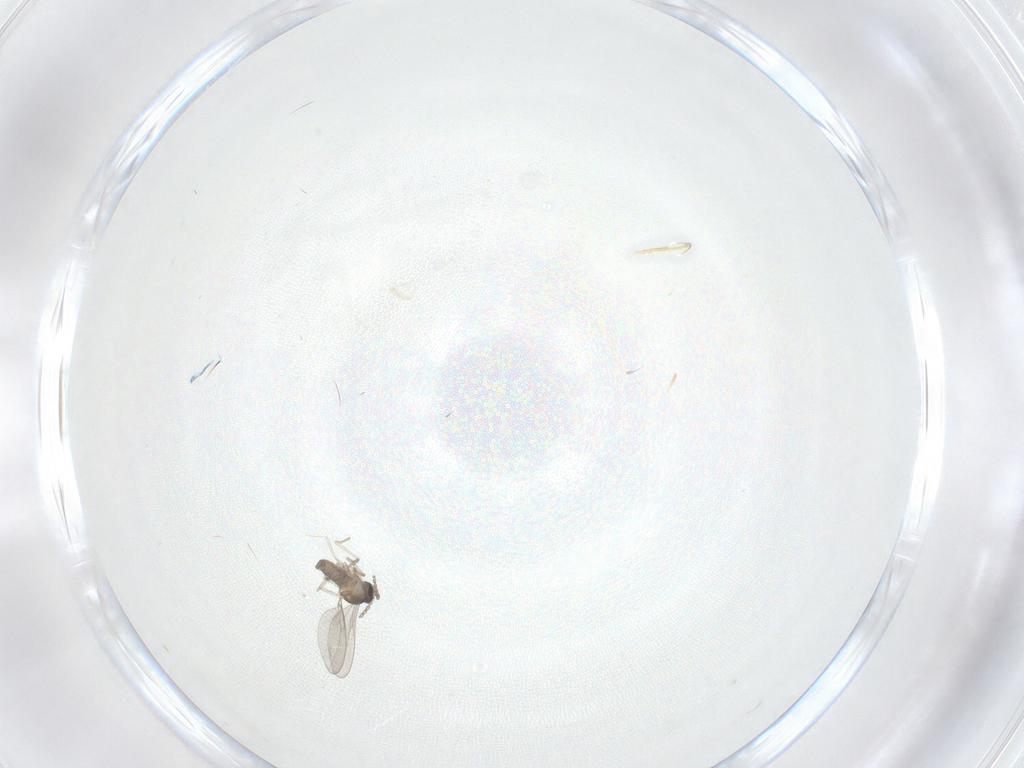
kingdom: Animalia
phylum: Arthropoda
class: Insecta
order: Diptera
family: Cecidomyiidae
